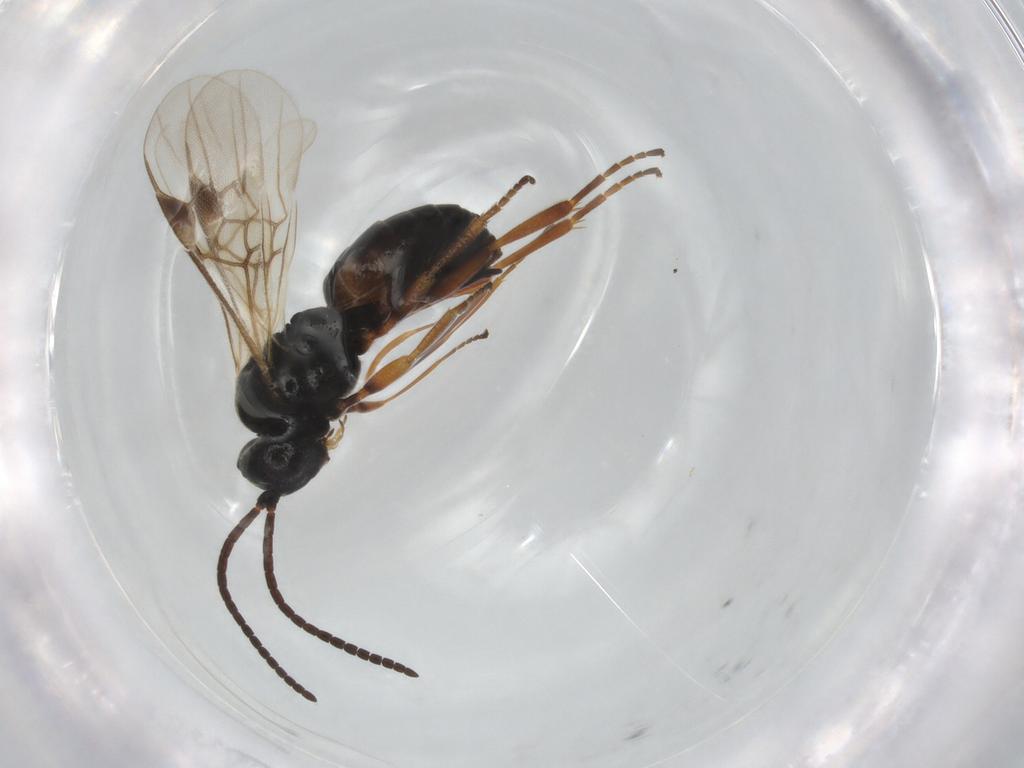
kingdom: Animalia
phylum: Arthropoda
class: Insecta
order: Hymenoptera
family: Braconidae
